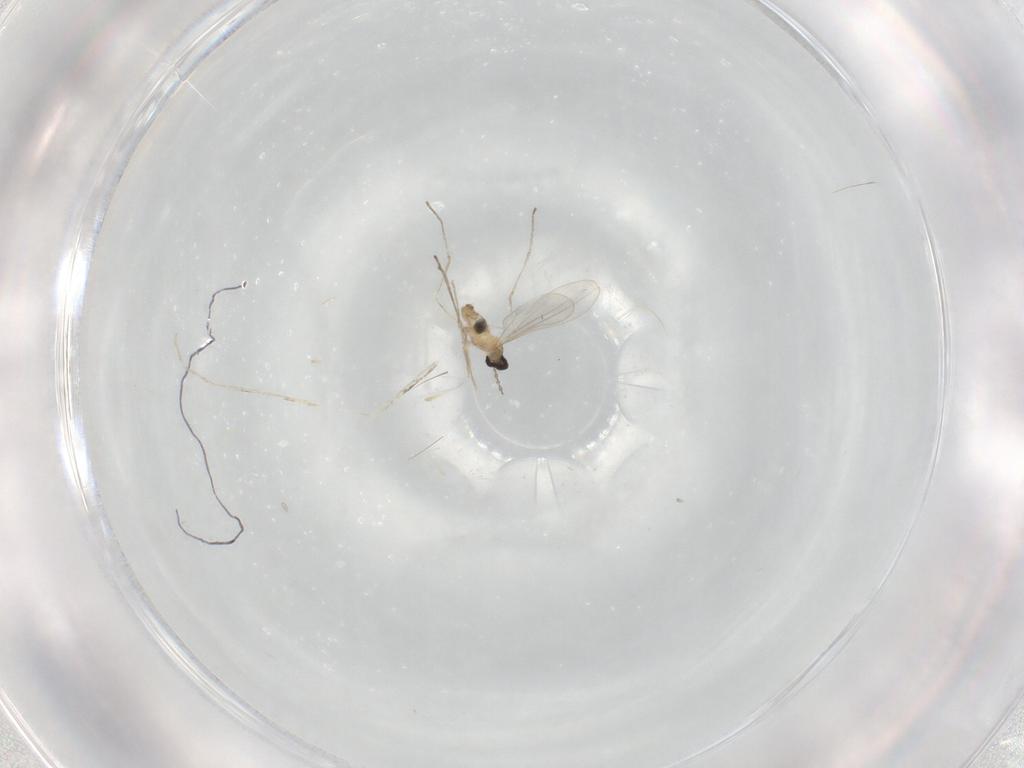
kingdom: Animalia
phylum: Arthropoda
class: Insecta
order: Diptera
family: Cecidomyiidae
